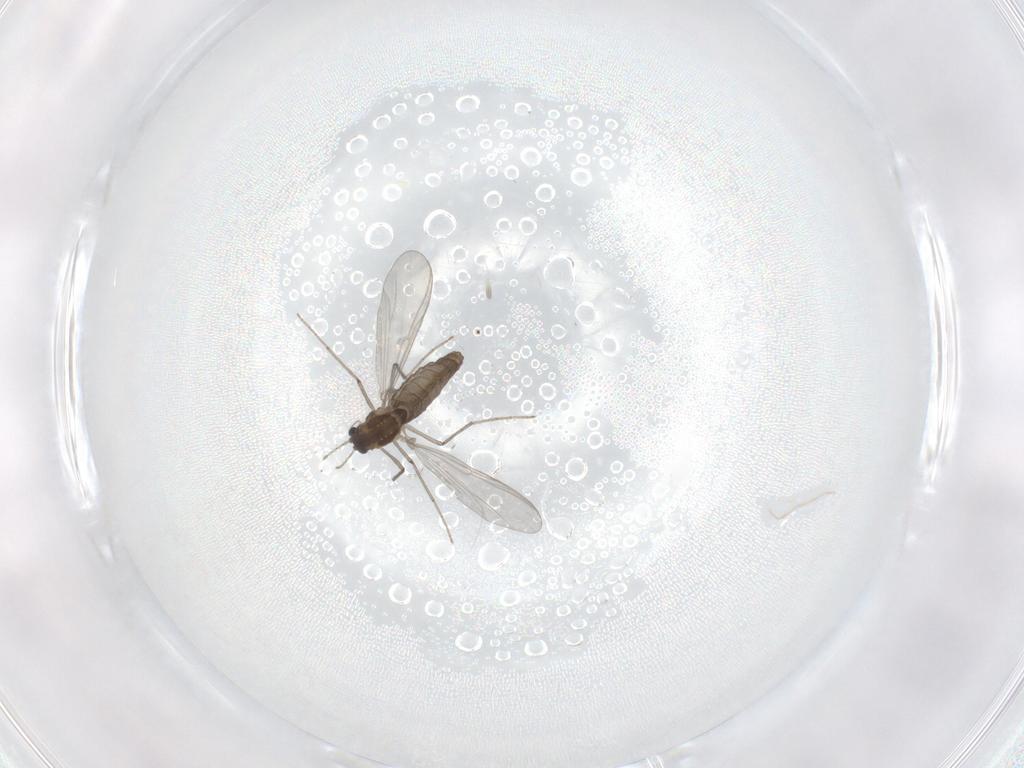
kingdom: Animalia
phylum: Arthropoda
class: Insecta
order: Diptera
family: Chironomidae
